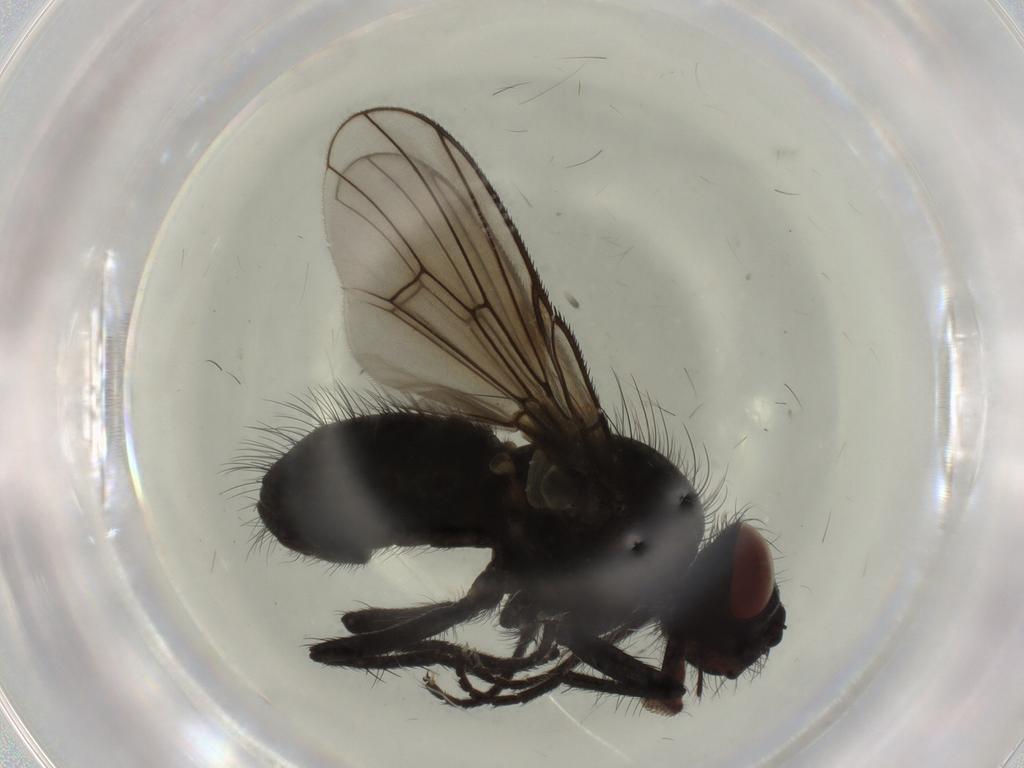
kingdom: Animalia
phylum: Arthropoda
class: Insecta
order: Diptera
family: Muscidae
